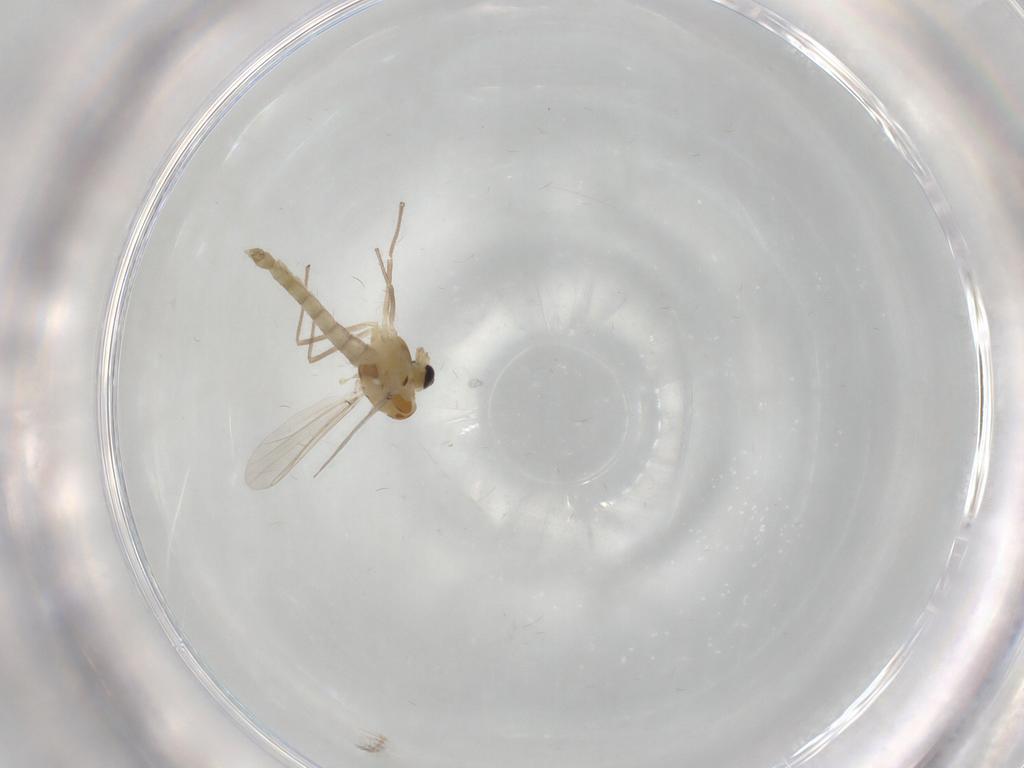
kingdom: Animalia
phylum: Arthropoda
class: Insecta
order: Diptera
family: Chironomidae
